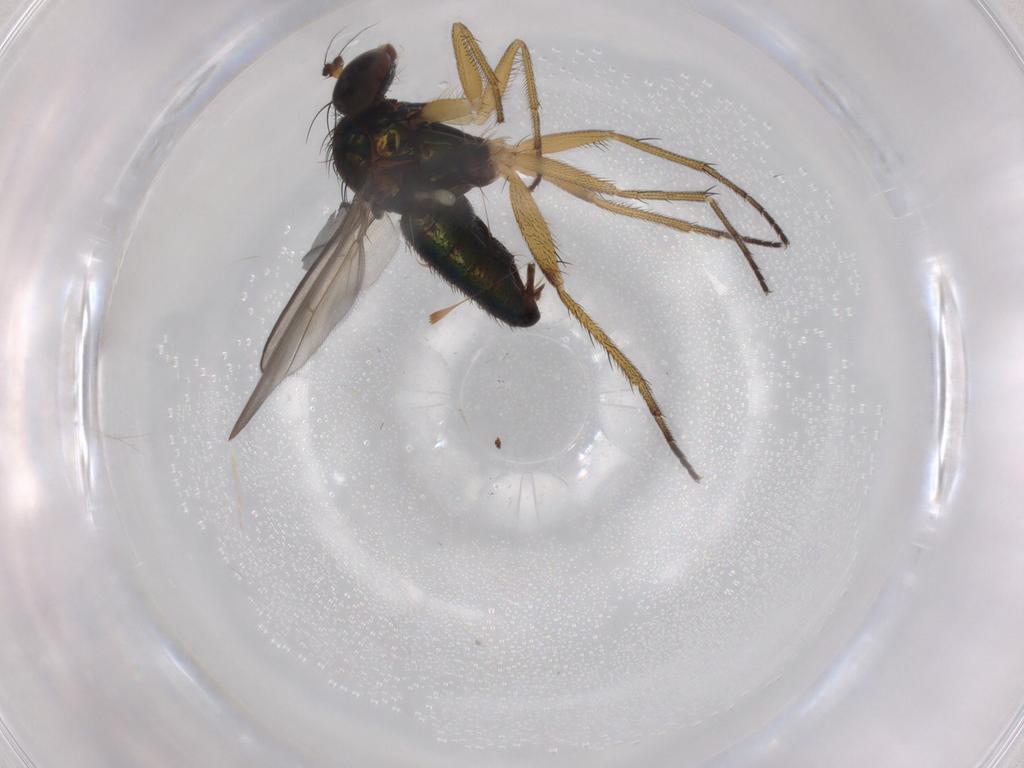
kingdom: Animalia
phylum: Arthropoda
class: Insecta
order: Diptera
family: Dolichopodidae
